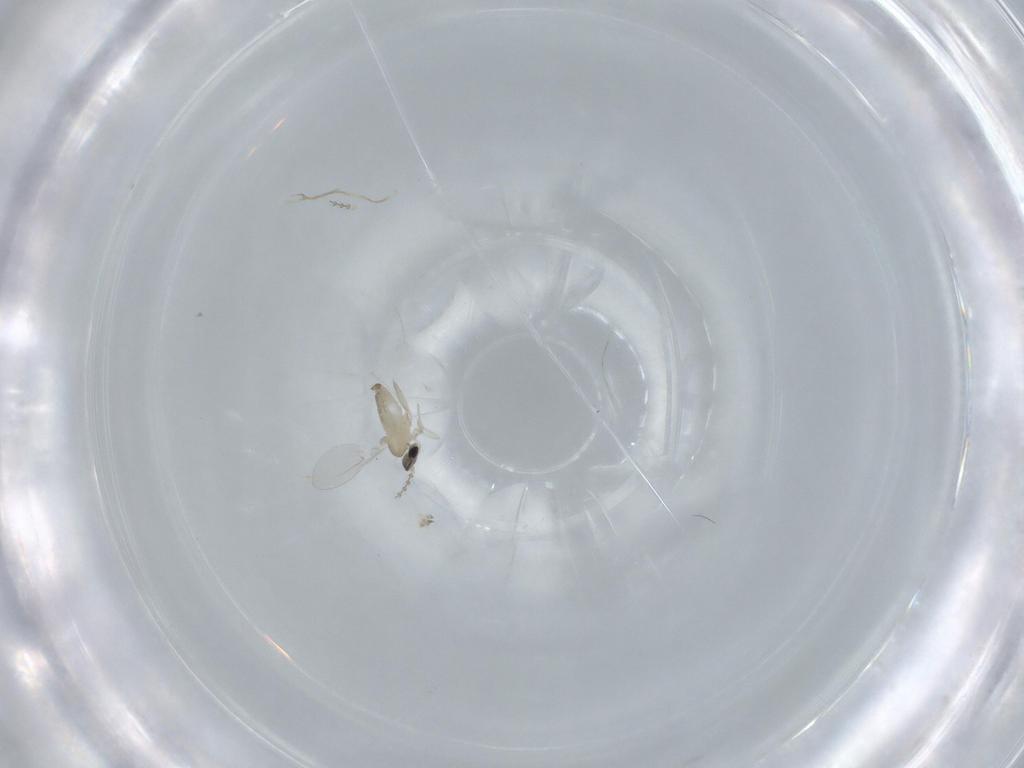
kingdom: Animalia
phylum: Arthropoda
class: Insecta
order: Diptera
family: Cecidomyiidae
